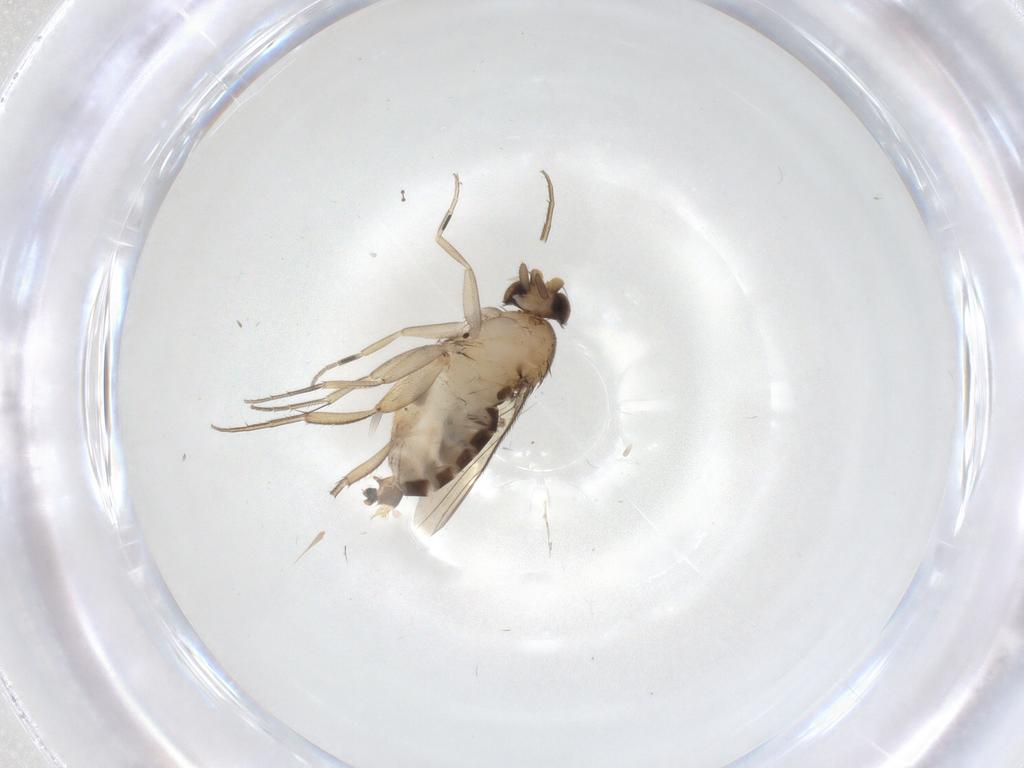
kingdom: Animalia
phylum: Arthropoda
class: Insecta
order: Diptera
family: Phoridae
